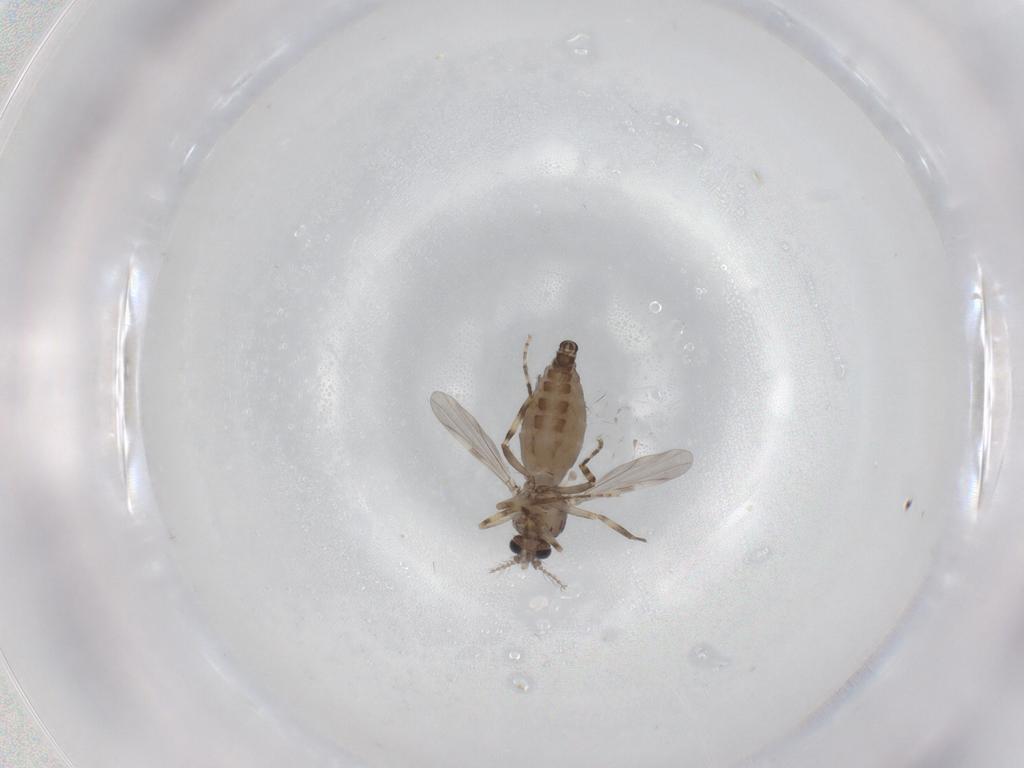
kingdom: Animalia
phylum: Arthropoda
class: Insecta
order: Diptera
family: Ceratopogonidae
